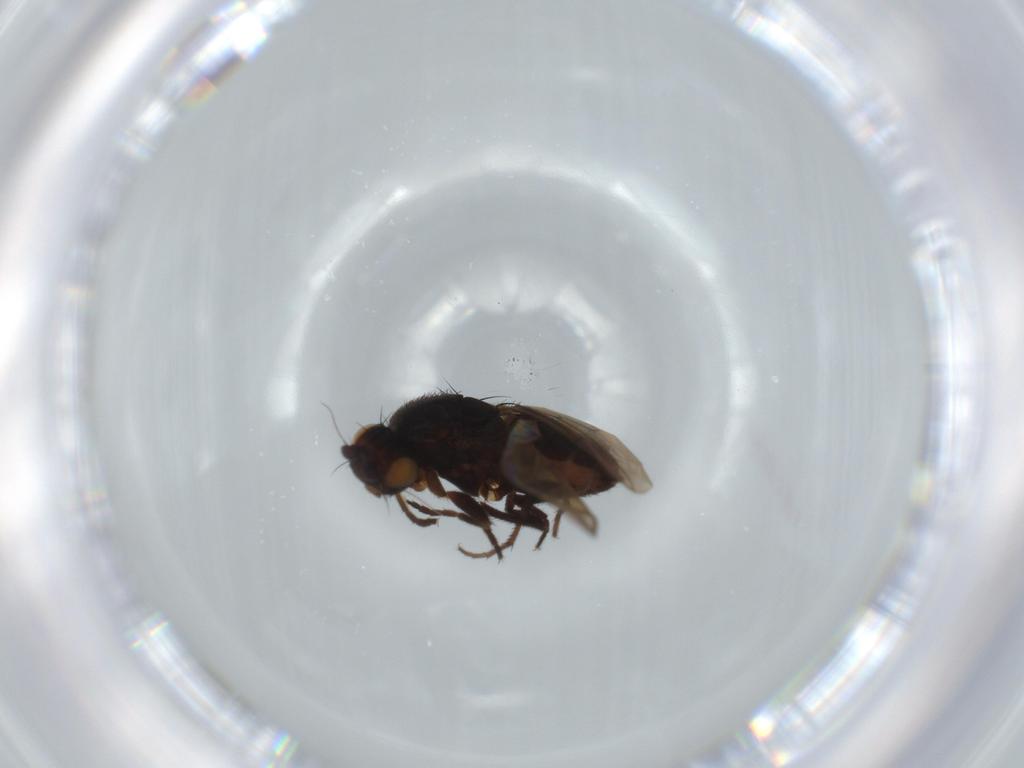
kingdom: Animalia
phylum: Arthropoda
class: Insecta
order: Diptera
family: Sphaeroceridae
